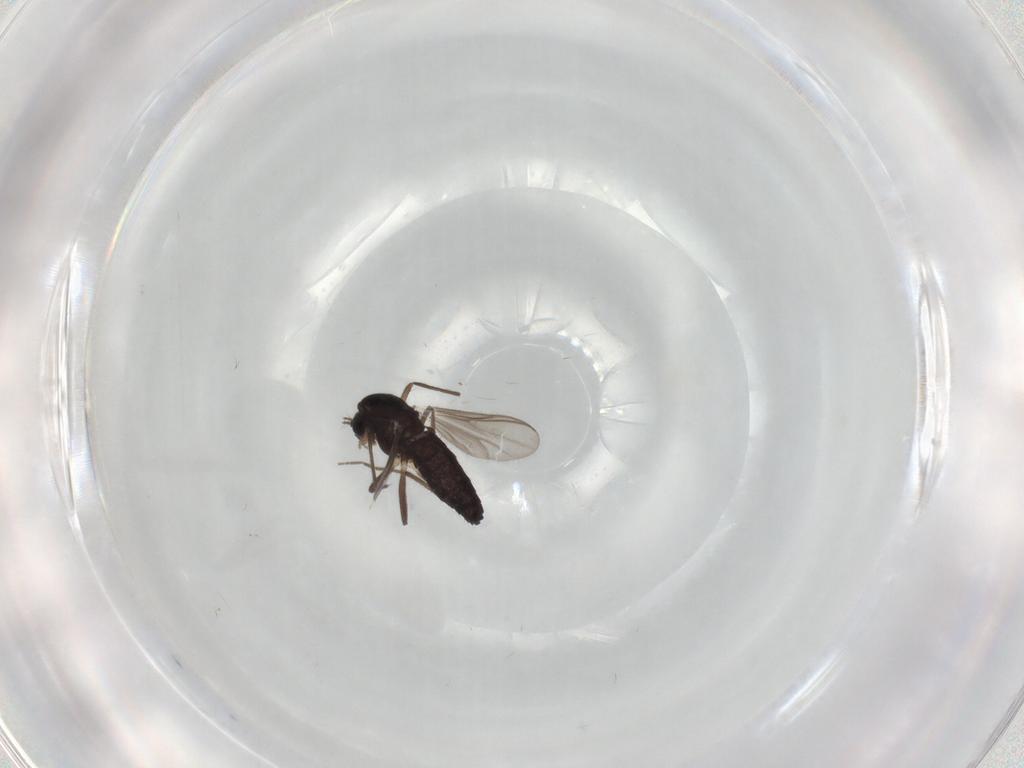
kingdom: Animalia
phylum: Arthropoda
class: Insecta
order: Diptera
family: Chironomidae
